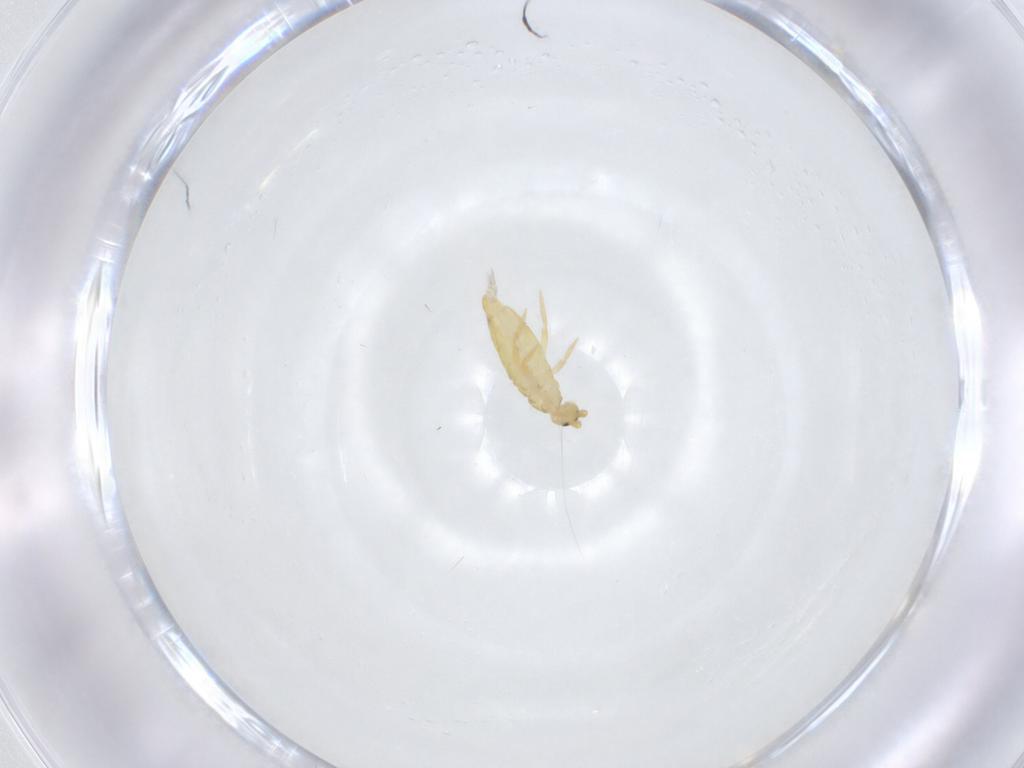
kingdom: Animalia
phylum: Arthropoda
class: Collembola
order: Entomobryomorpha
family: Entomobryidae
